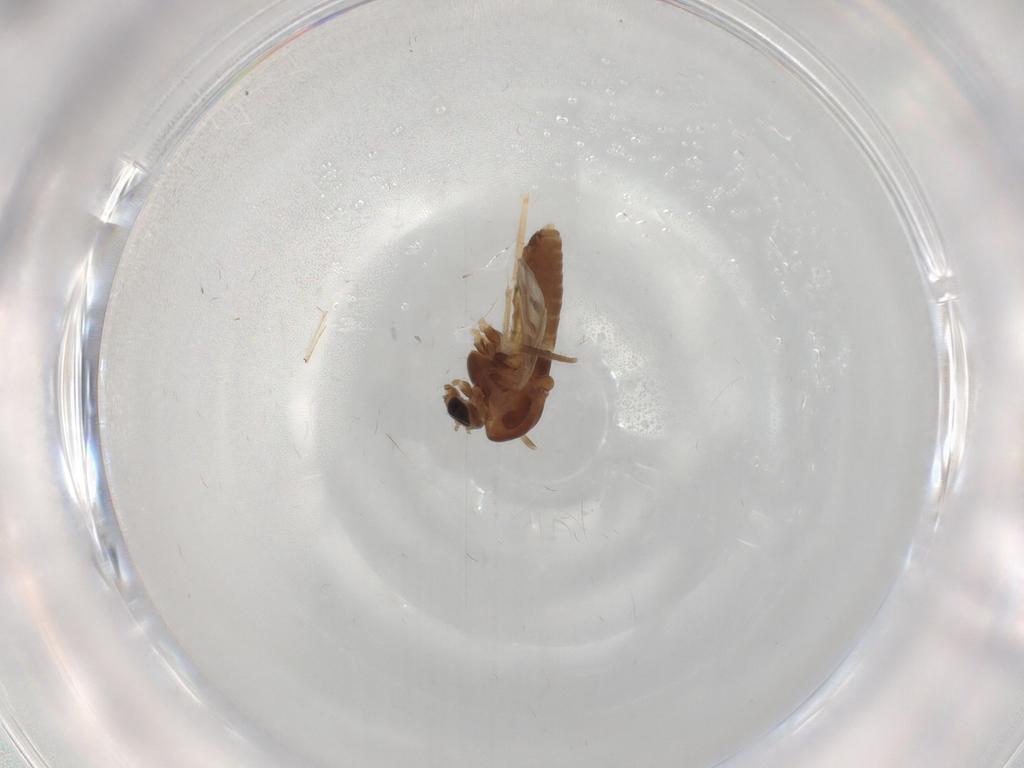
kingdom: Animalia
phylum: Arthropoda
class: Insecta
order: Diptera
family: Chironomidae
